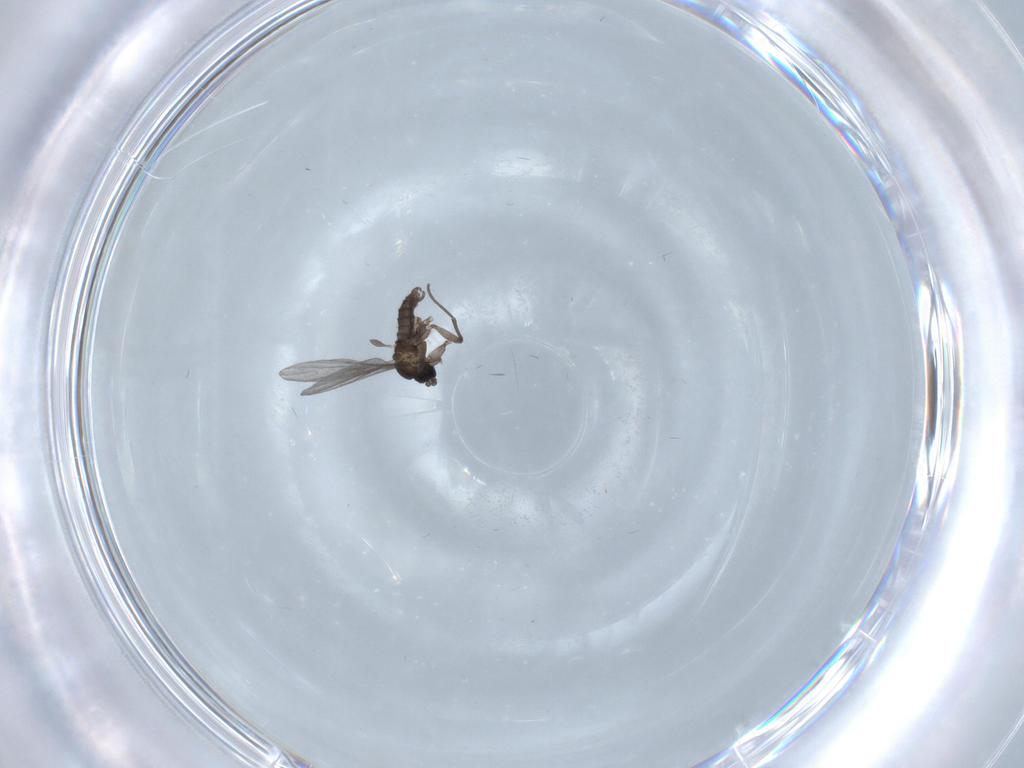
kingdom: Animalia
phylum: Arthropoda
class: Insecta
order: Diptera
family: Sciaridae
